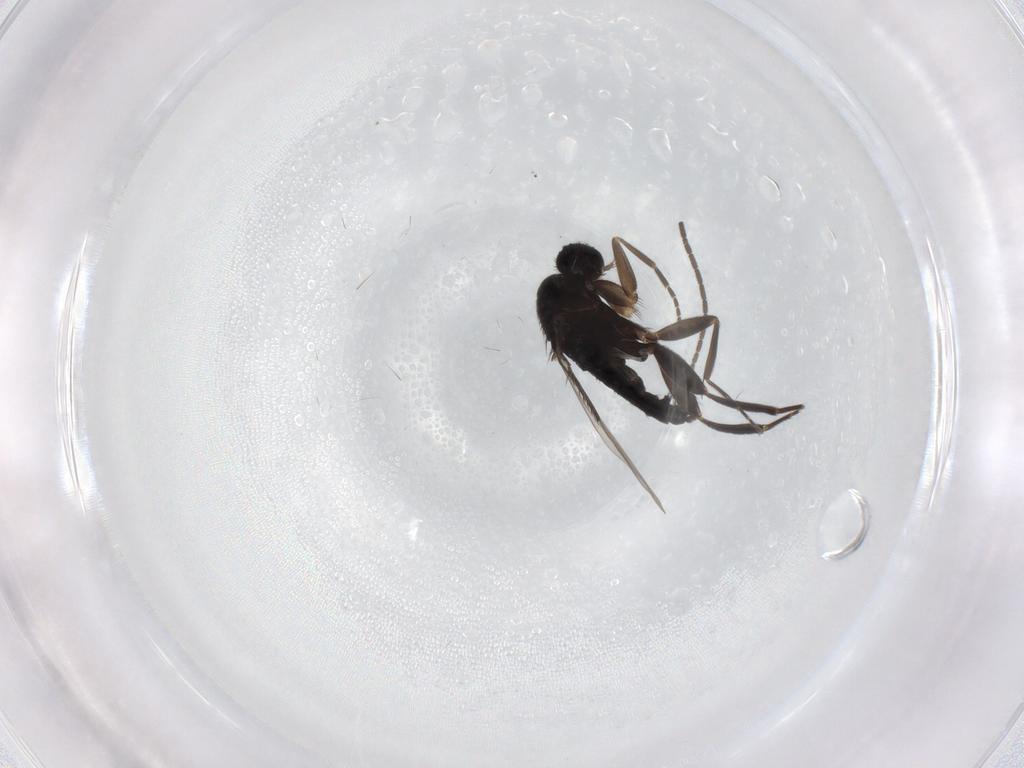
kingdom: Animalia
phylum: Arthropoda
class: Insecta
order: Diptera
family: Phoridae
